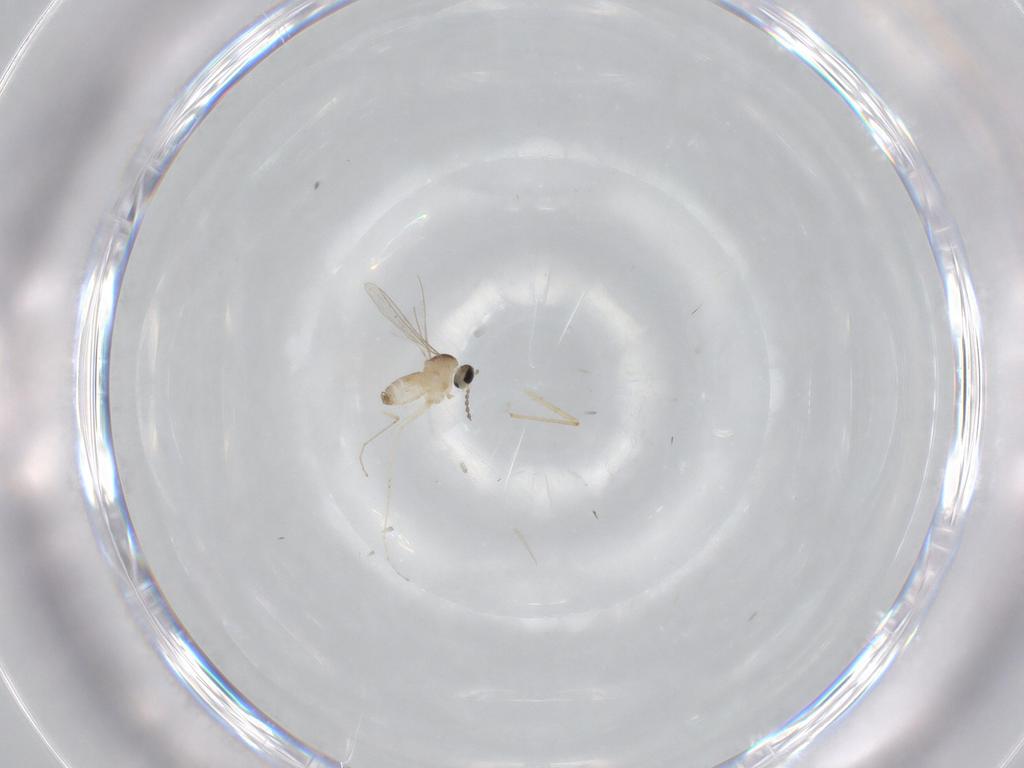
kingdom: Animalia
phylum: Arthropoda
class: Insecta
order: Diptera
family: Cecidomyiidae
